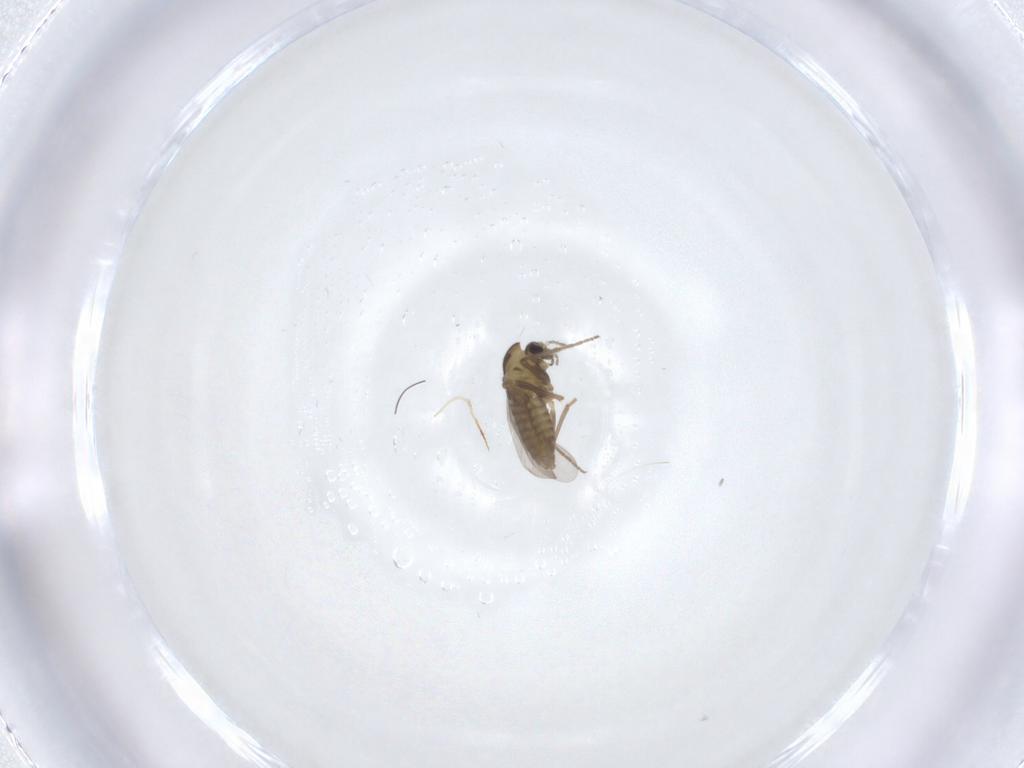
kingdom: Animalia
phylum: Arthropoda
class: Insecta
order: Diptera
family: Chironomidae
